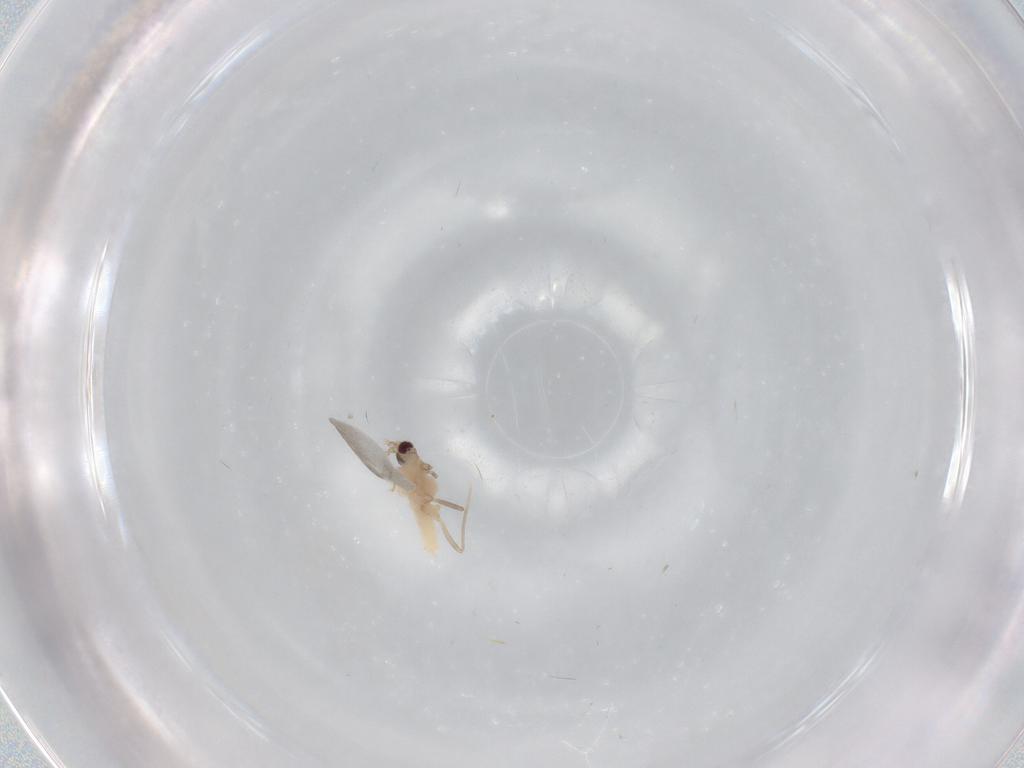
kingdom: Animalia
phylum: Arthropoda
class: Insecta
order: Diptera
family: Cecidomyiidae
